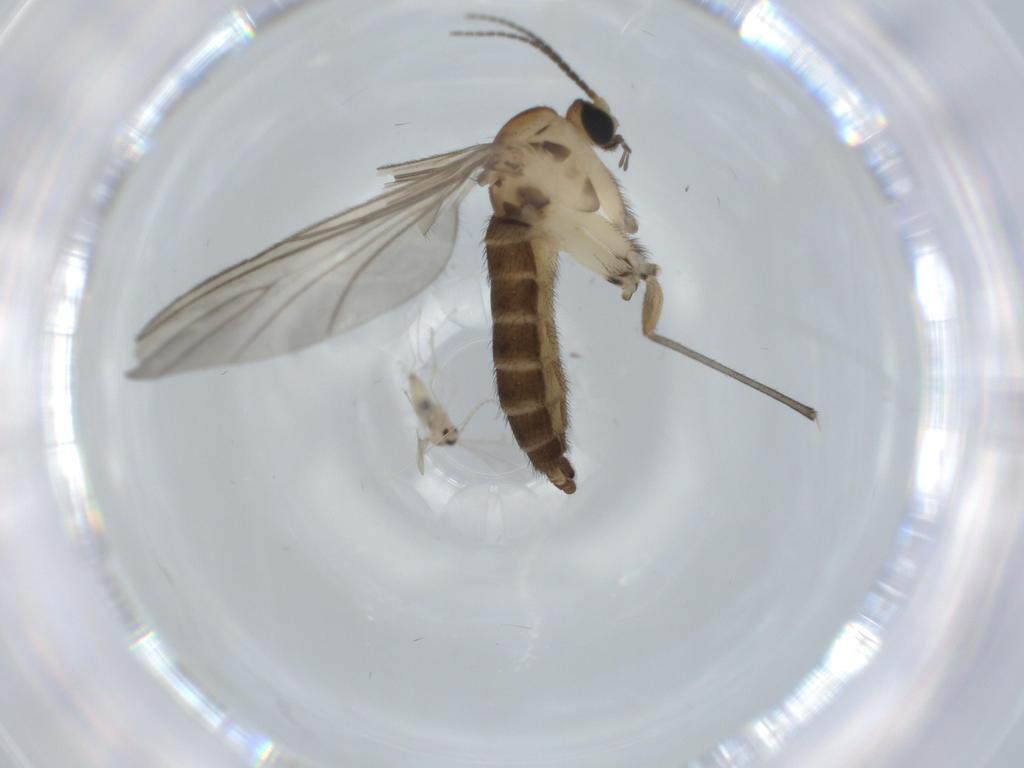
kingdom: Animalia
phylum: Arthropoda
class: Insecta
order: Diptera
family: Sciaridae
